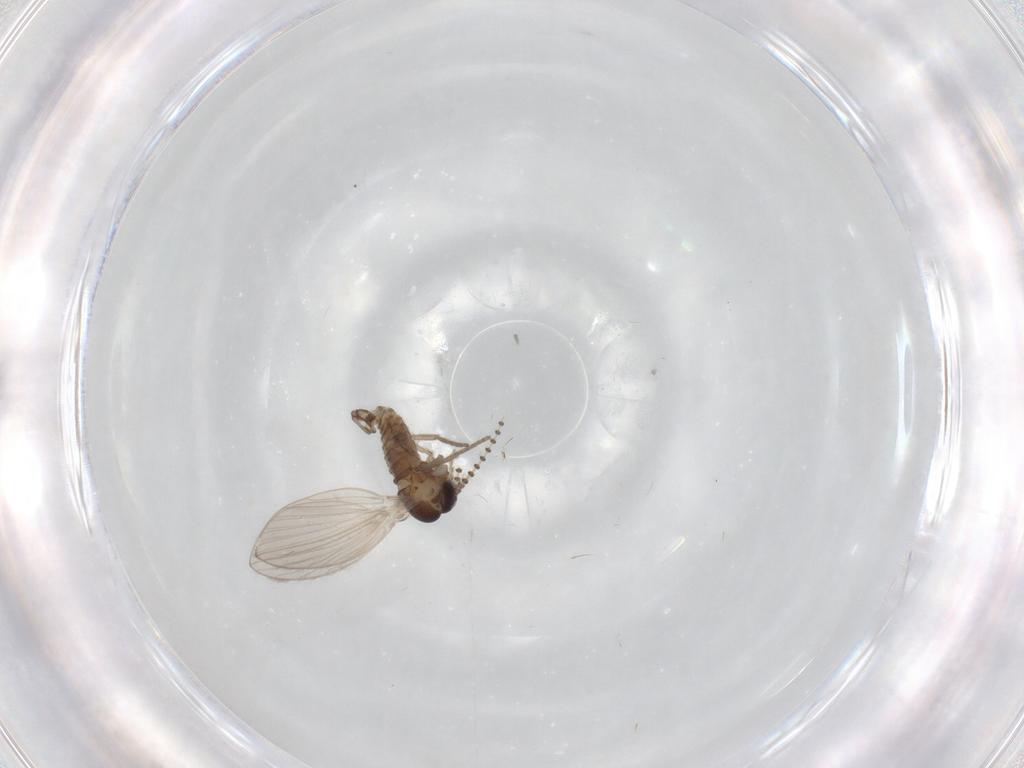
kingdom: Animalia
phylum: Arthropoda
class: Insecta
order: Diptera
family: Psychodidae
